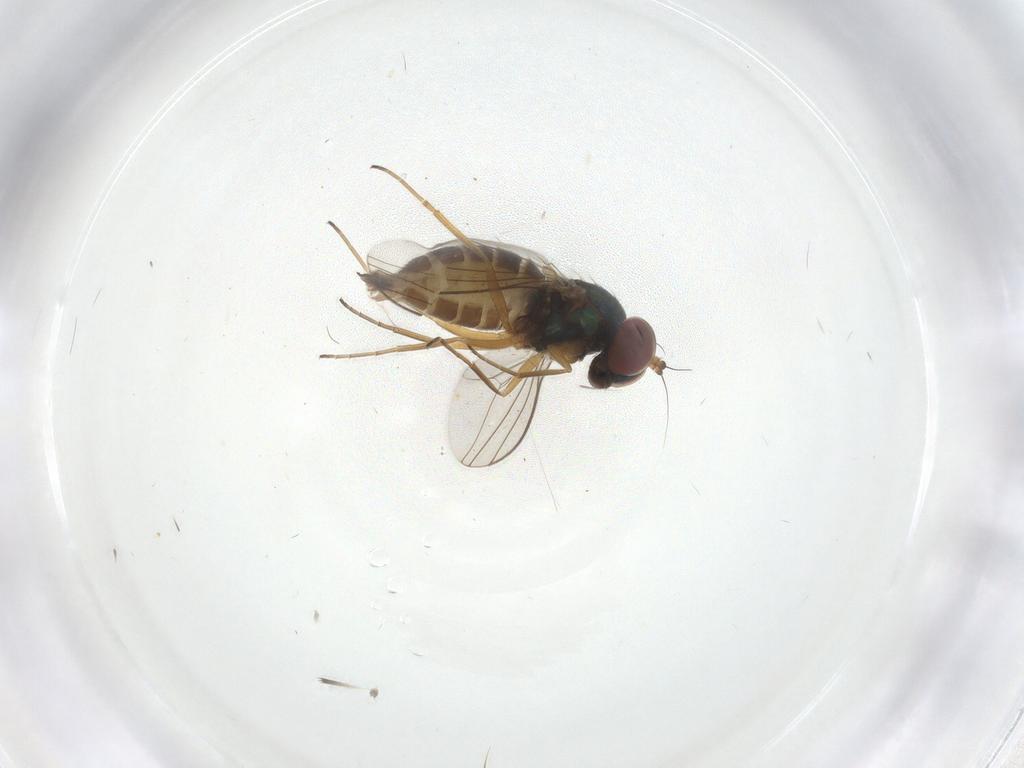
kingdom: Animalia
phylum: Arthropoda
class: Insecta
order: Diptera
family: Dolichopodidae
